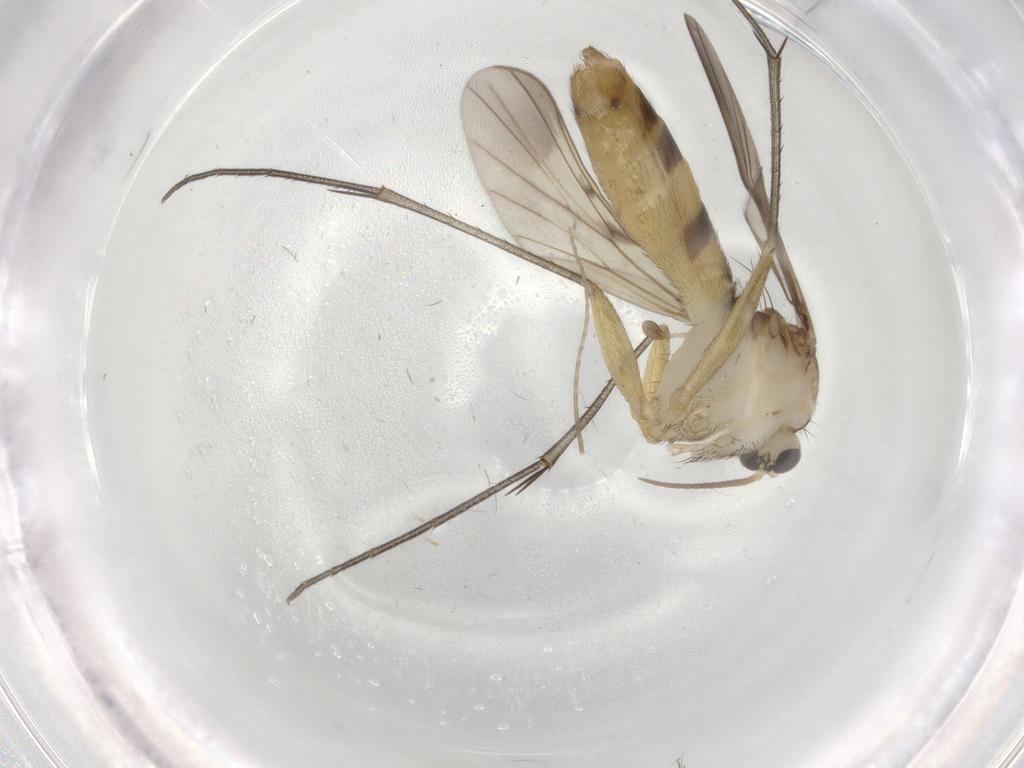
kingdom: Animalia
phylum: Arthropoda
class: Insecta
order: Diptera
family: Mycetophilidae
